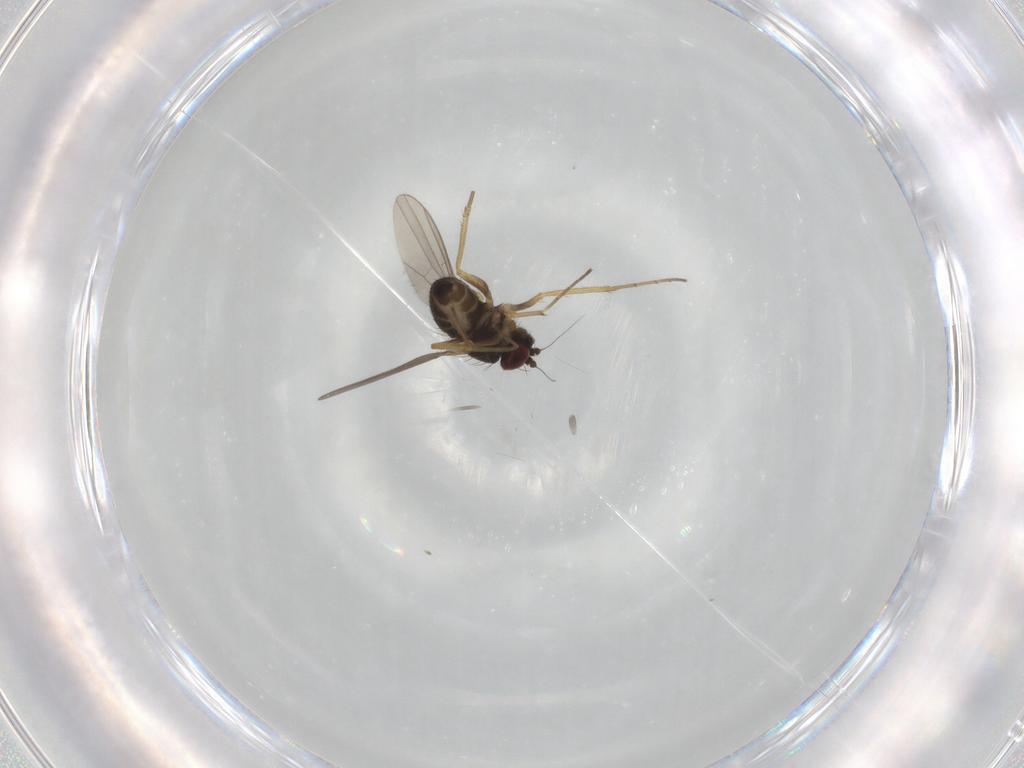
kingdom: Animalia
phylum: Arthropoda
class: Insecta
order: Diptera
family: Dolichopodidae
